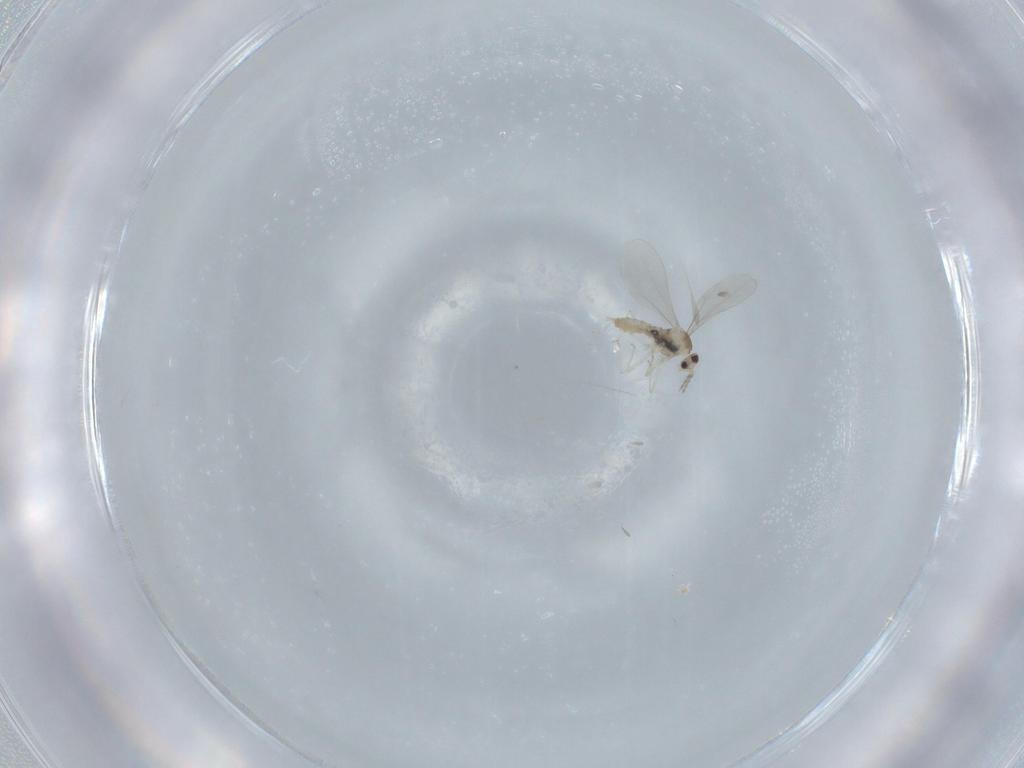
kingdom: Animalia
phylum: Arthropoda
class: Insecta
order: Diptera
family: Cecidomyiidae
